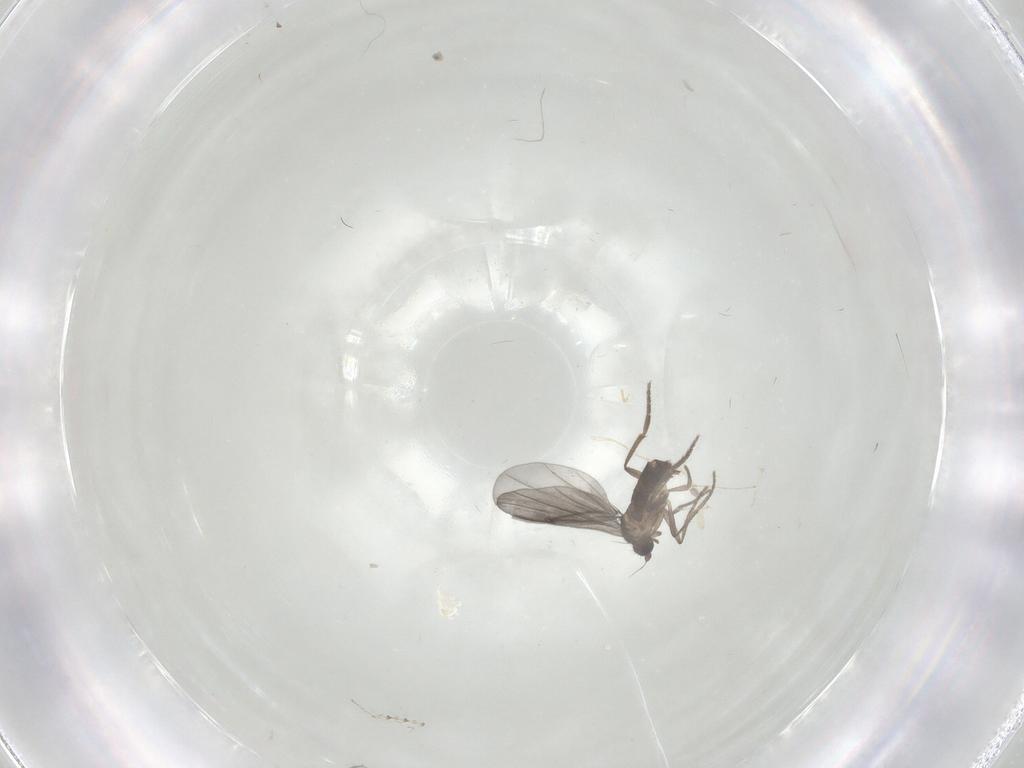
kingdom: Animalia
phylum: Arthropoda
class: Insecta
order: Diptera
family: Phoridae
